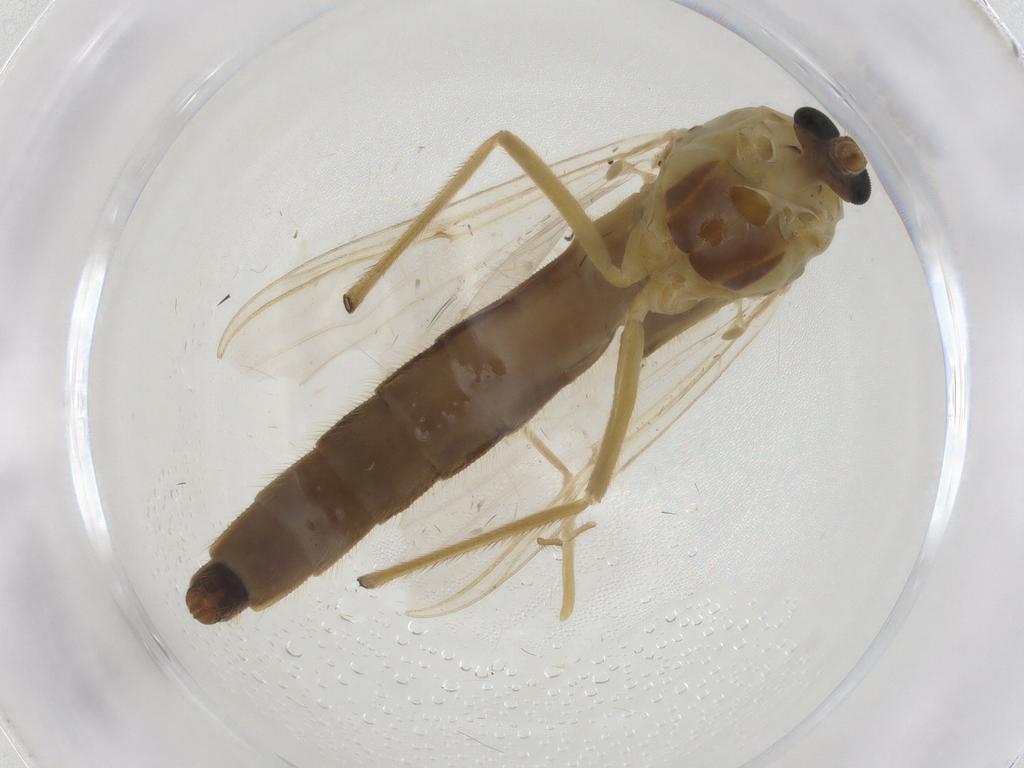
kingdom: Animalia
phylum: Arthropoda
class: Insecta
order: Diptera
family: Chironomidae
